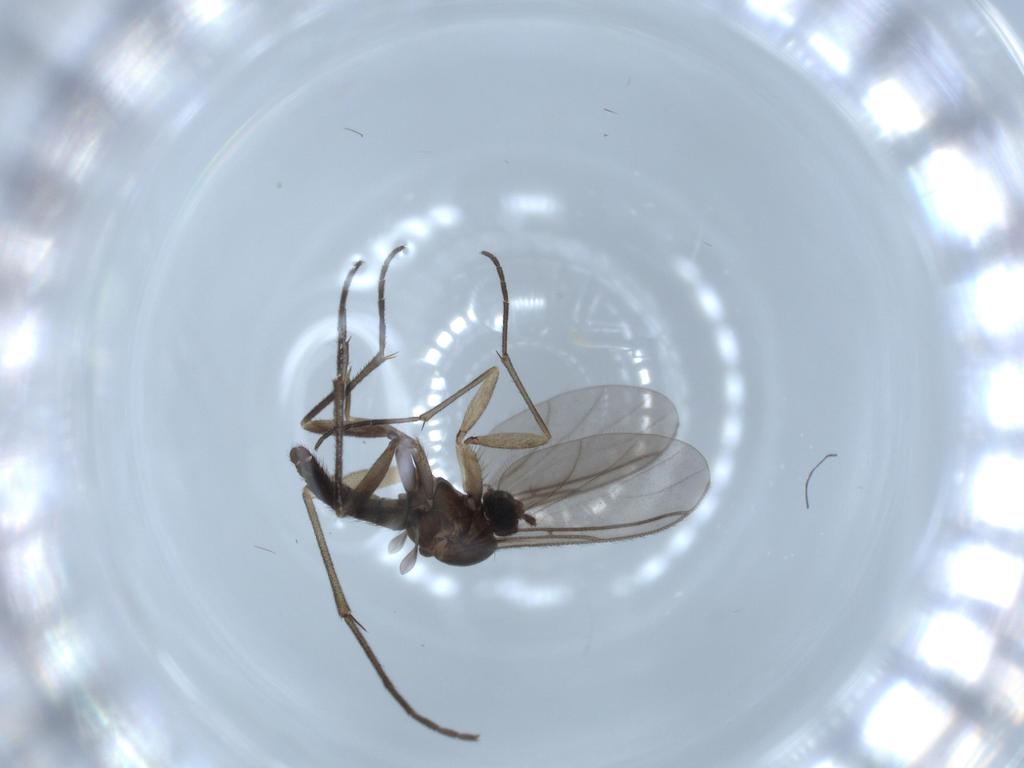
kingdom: Animalia
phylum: Arthropoda
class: Insecta
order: Diptera
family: Sciaridae
